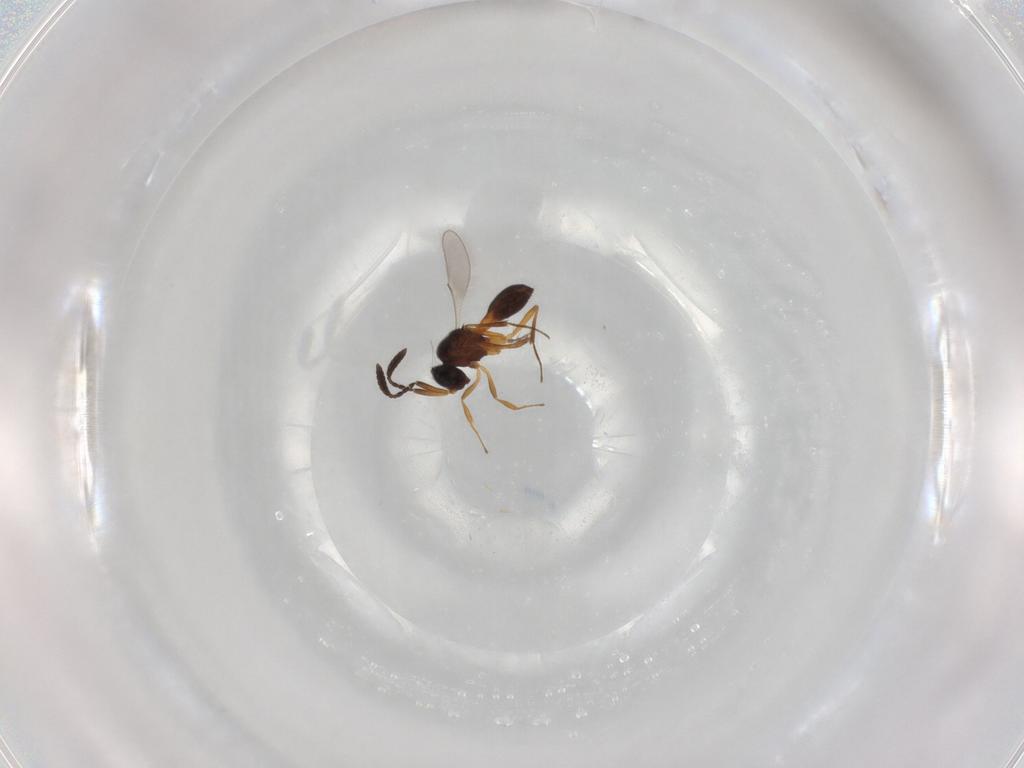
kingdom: Animalia
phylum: Arthropoda
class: Insecta
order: Hymenoptera
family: Scelionidae
